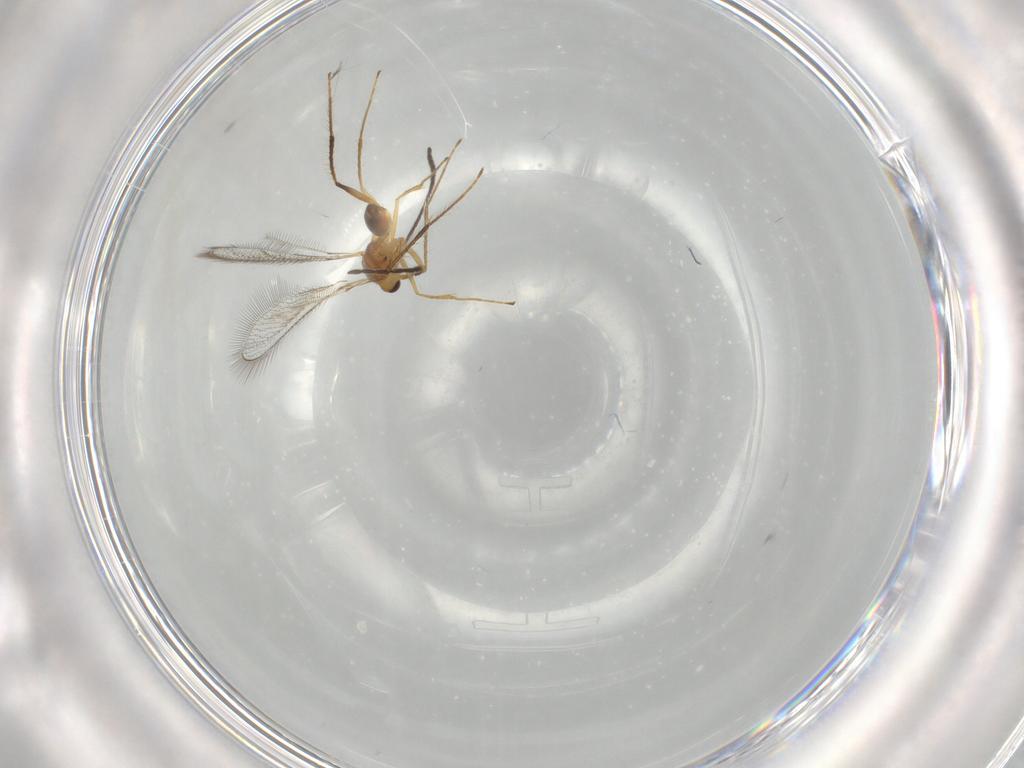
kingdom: Animalia
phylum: Arthropoda
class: Insecta
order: Hymenoptera
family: Mymaridae
